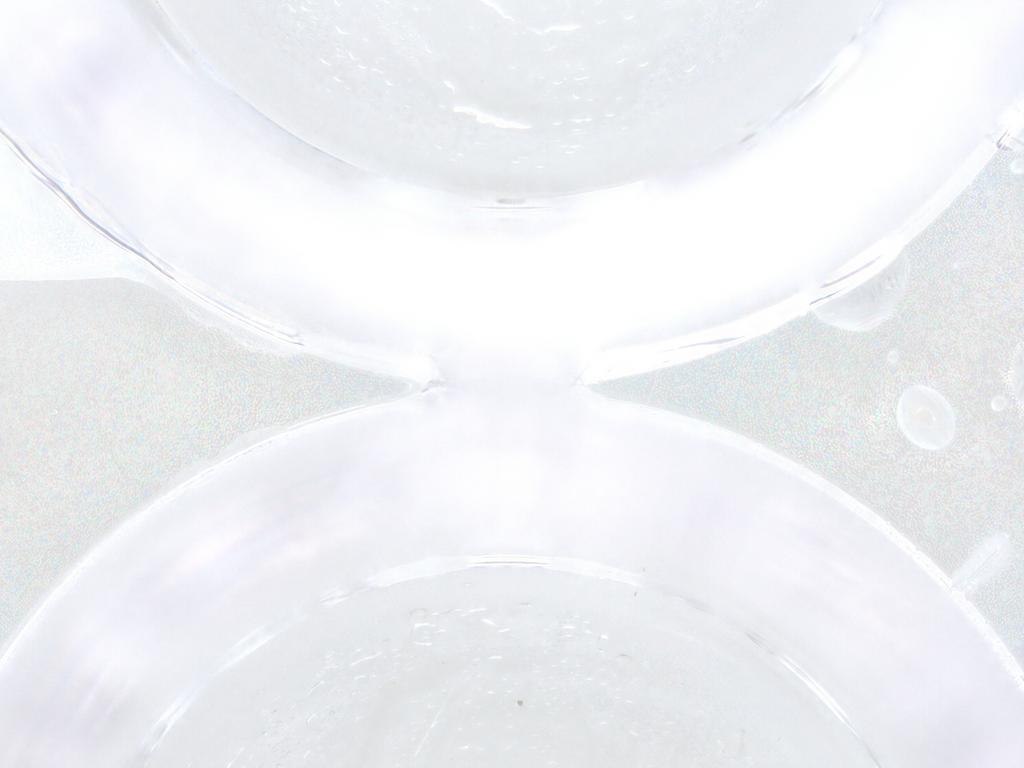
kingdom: Animalia
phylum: Arthropoda
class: Insecta
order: Diptera
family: Ceratopogonidae
